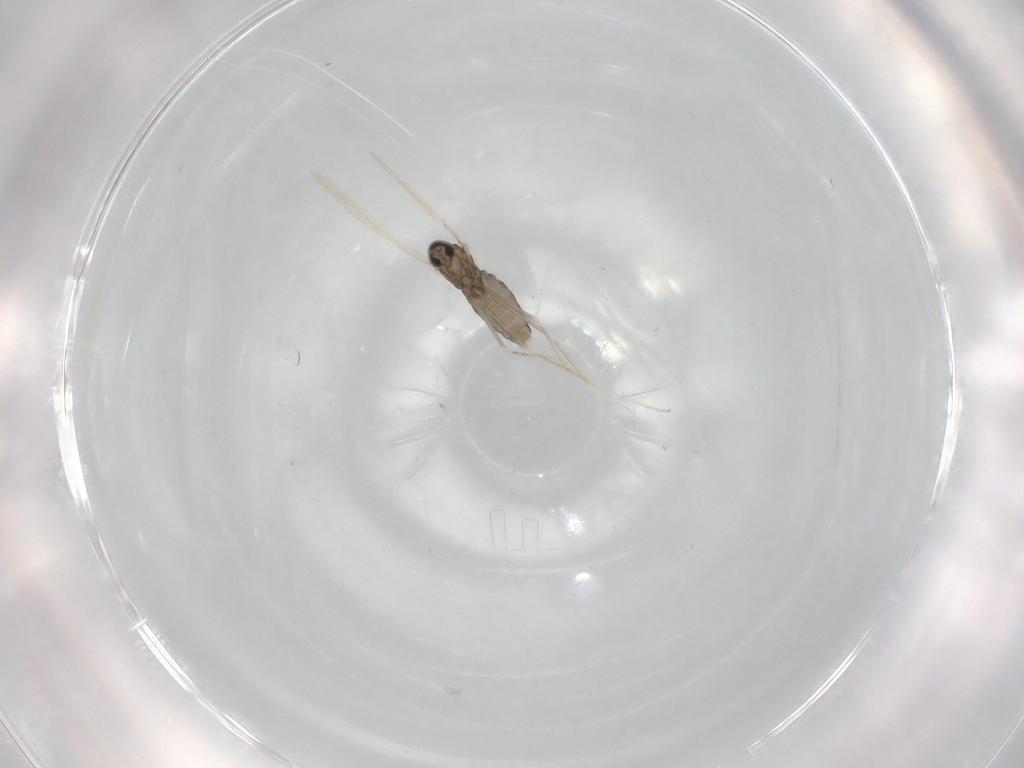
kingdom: Animalia
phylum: Arthropoda
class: Insecta
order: Diptera
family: Cecidomyiidae
